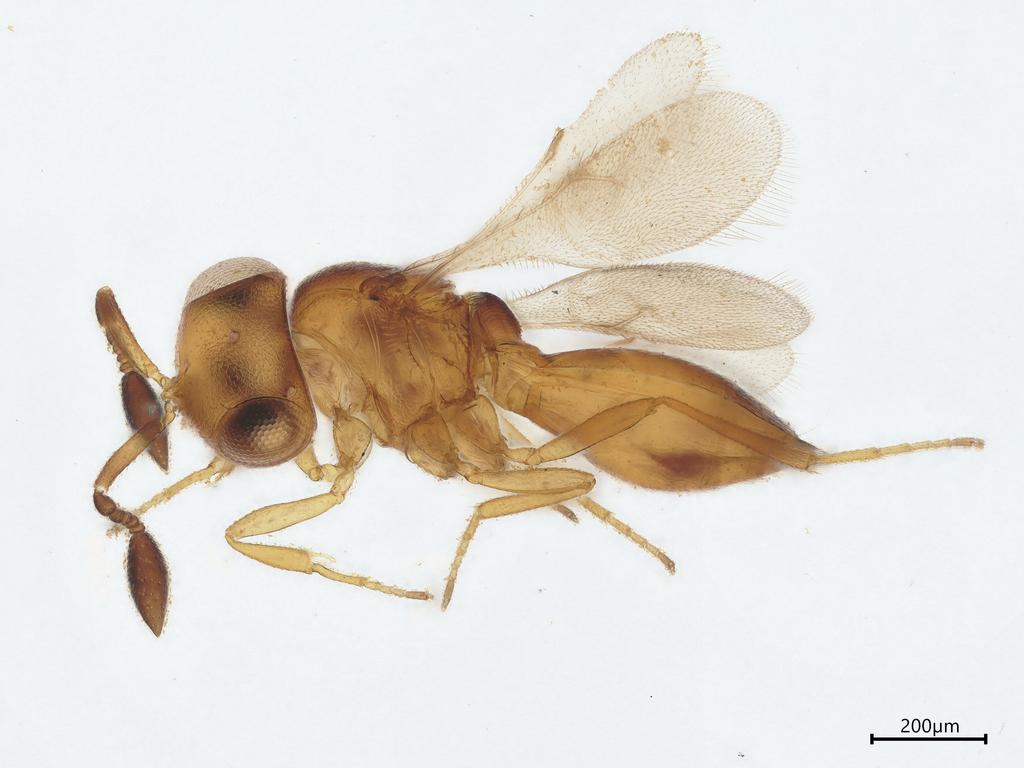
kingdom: Animalia
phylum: Arthropoda
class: Insecta
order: Hymenoptera
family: Scelionidae
